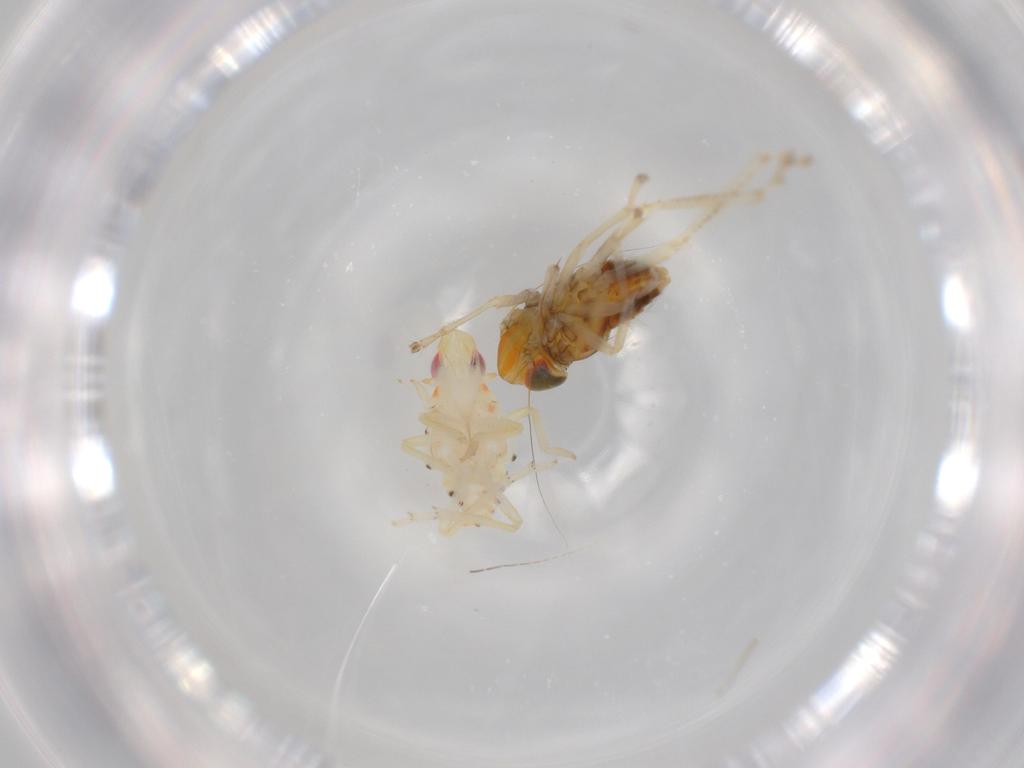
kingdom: Animalia
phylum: Arthropoda
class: Insecta
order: Hemiptera
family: Tropiduchidae
